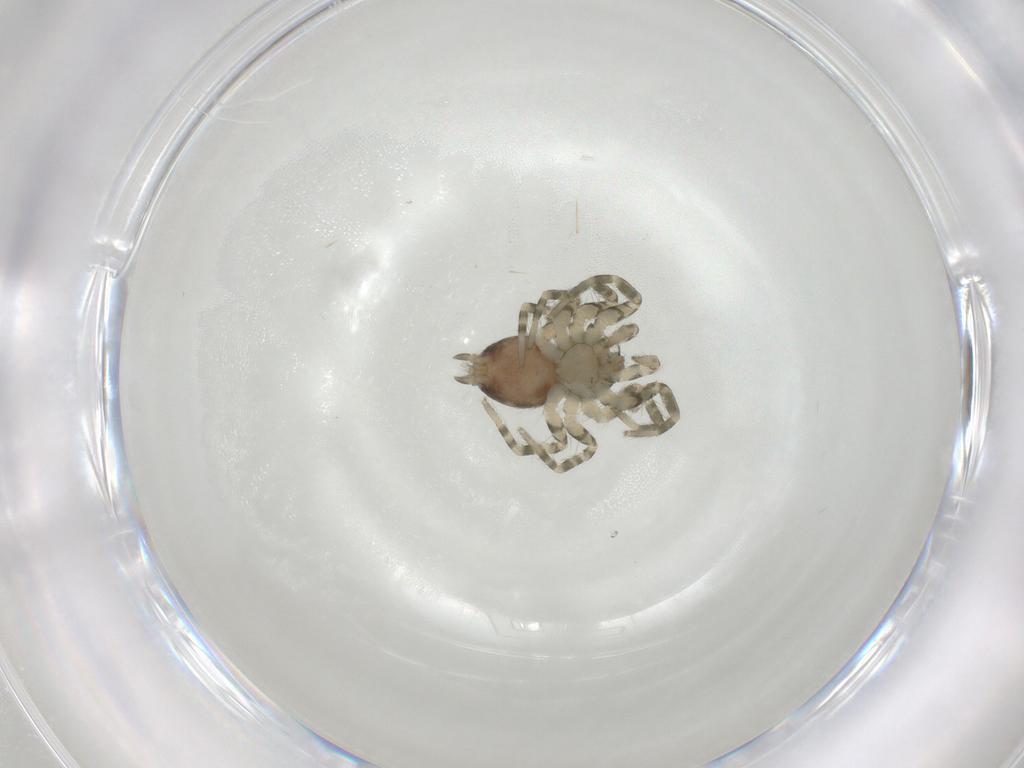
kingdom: Animalia
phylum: Arthropoda
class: Arachnida
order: Araneae
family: Oecobiidae
